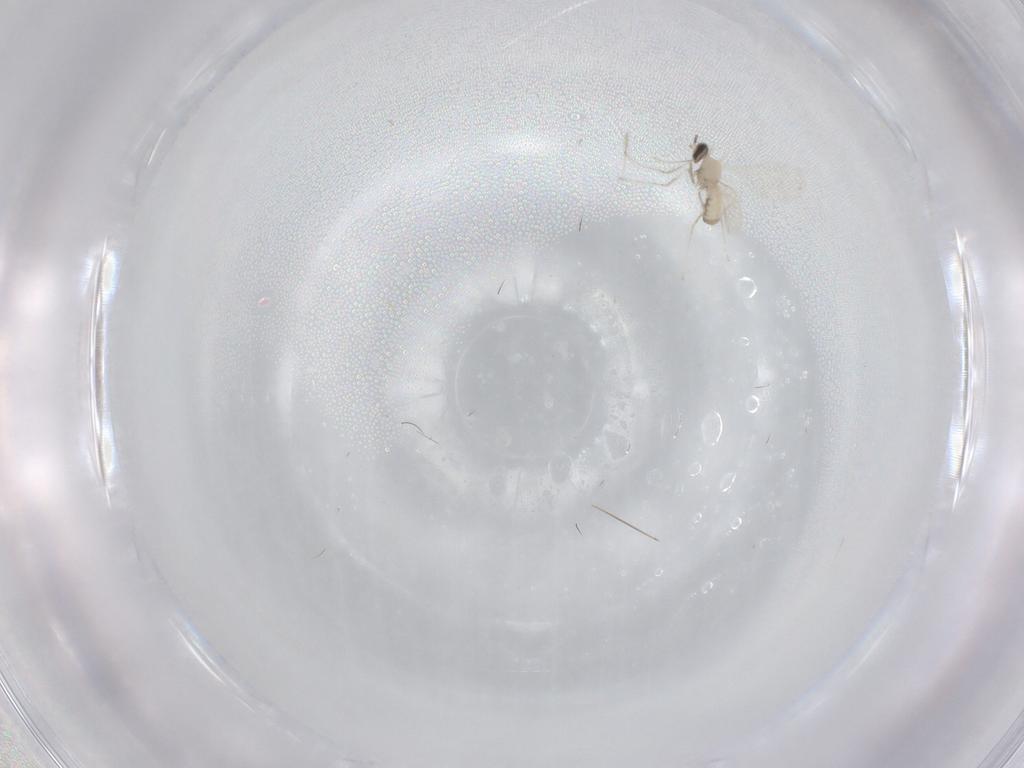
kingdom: Animalia
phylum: Arthropoda
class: Insecta
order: Diptera
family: Cecidomyiidae
